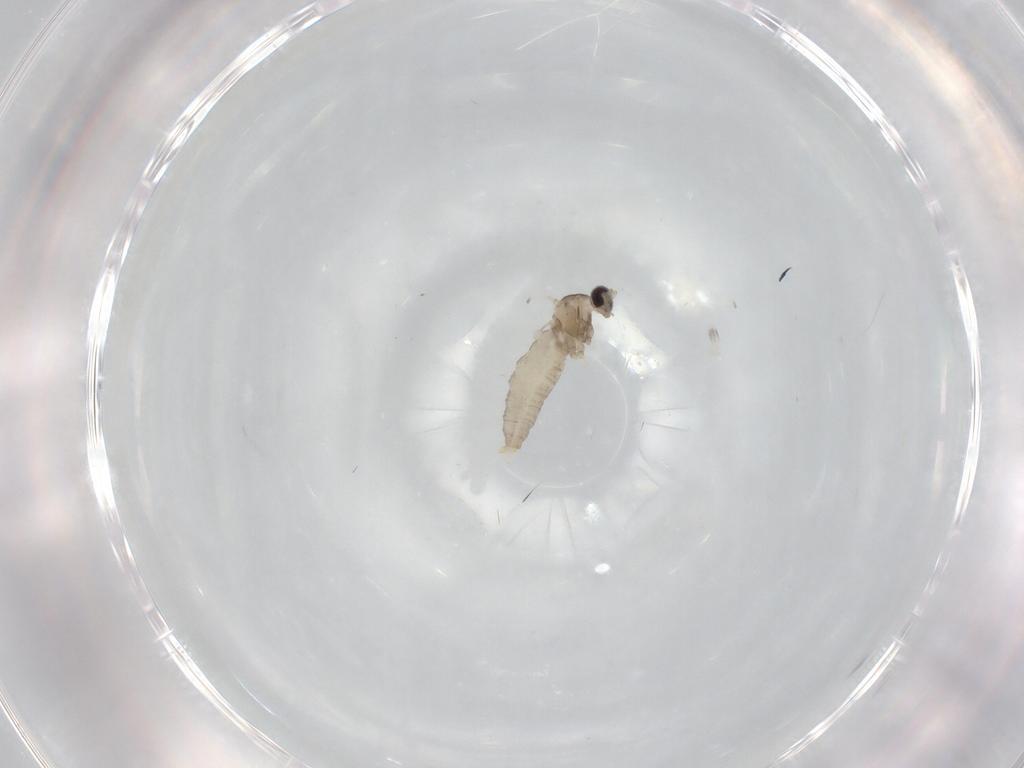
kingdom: Animalia
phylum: Arthropoda
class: Insecta
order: Diptera
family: Cecidomyiidae
